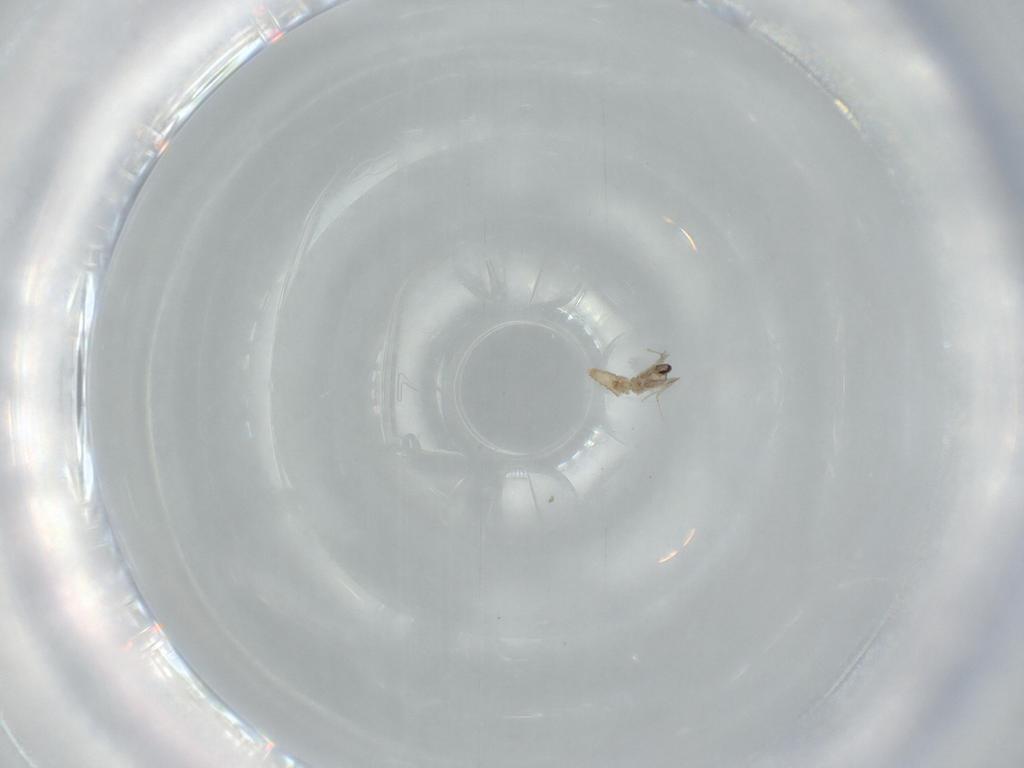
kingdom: Animalia
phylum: Arthropoda
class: Insecta
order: Diptera
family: Cecidomyiidae
